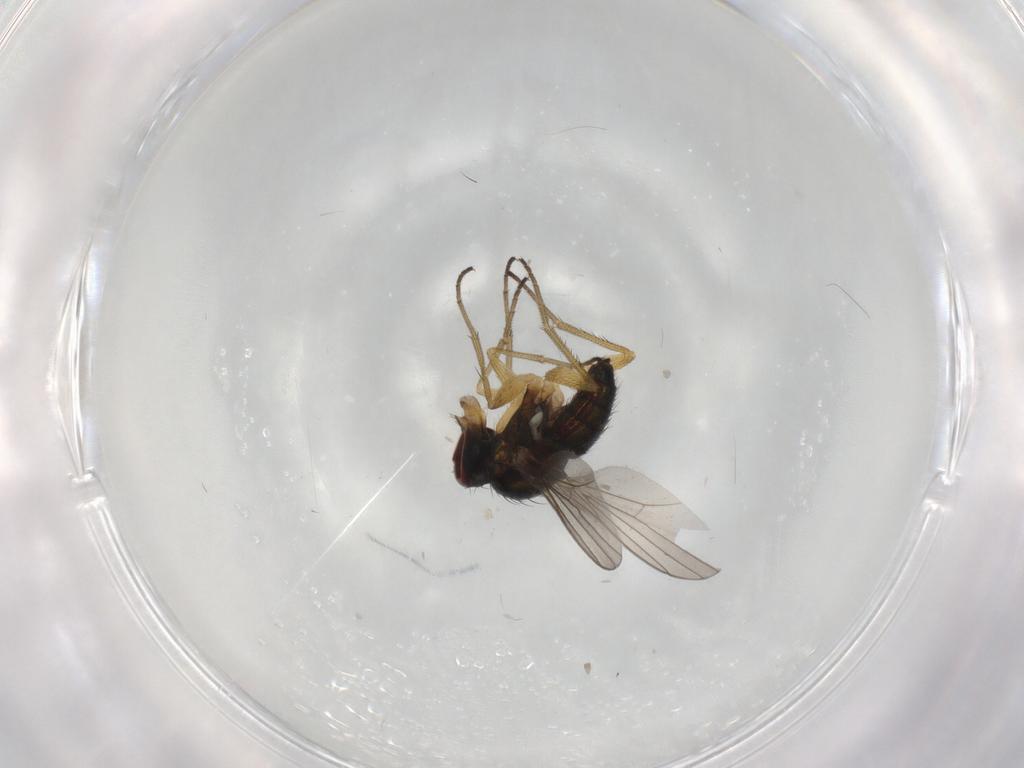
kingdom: Animalia
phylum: Arthropoda
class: Insecta
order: Diptera
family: Dolichopodidae
